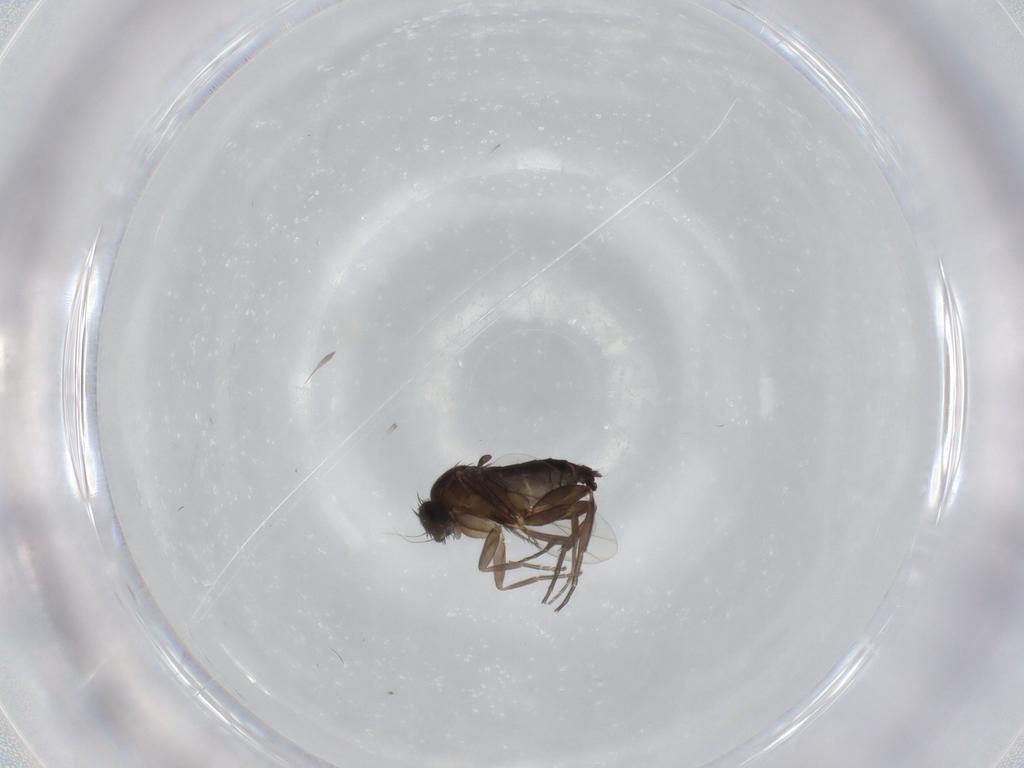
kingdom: Animalia
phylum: Arthropoda
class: Insecta
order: Diptera
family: Phoridae
